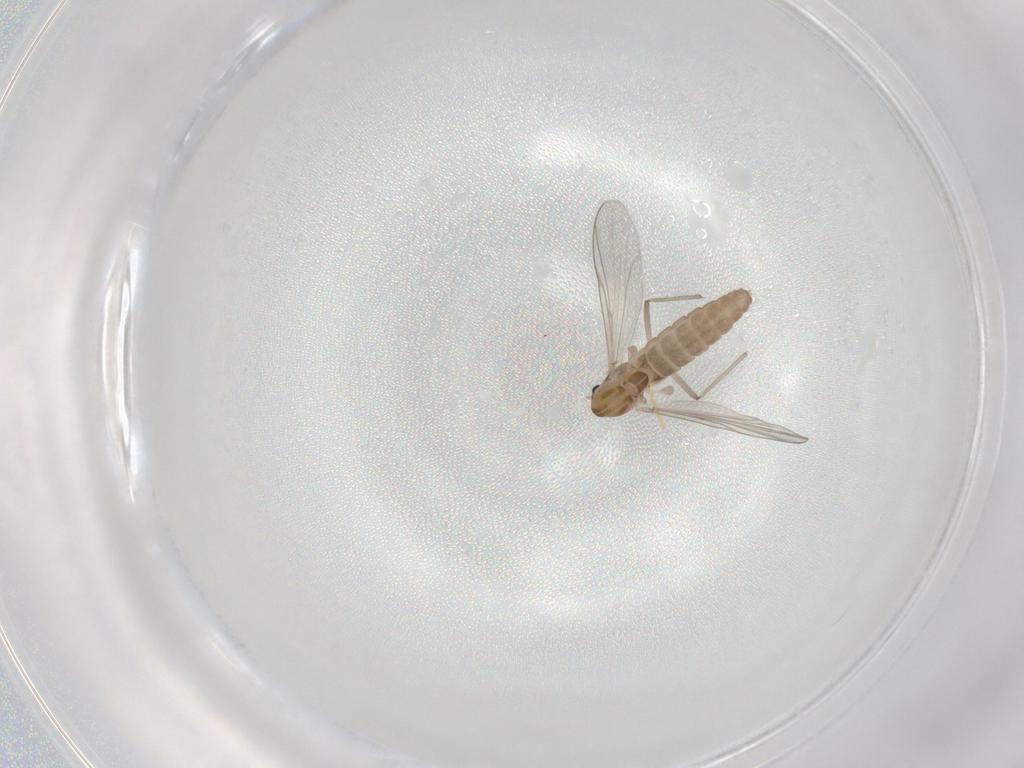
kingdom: Animalia
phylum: Arthropoda
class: Insecta
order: Diptera
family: Chironomidae
